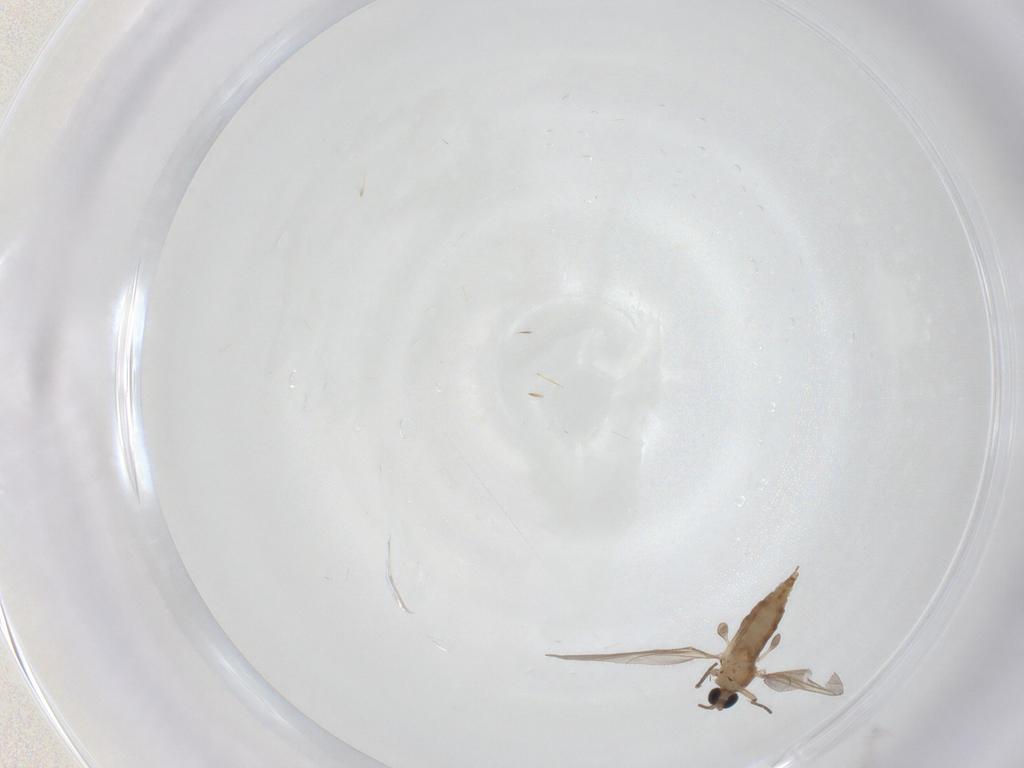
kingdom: Animalia
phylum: Arthropoda
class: Insecta
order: Diptera
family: Sciaridae
